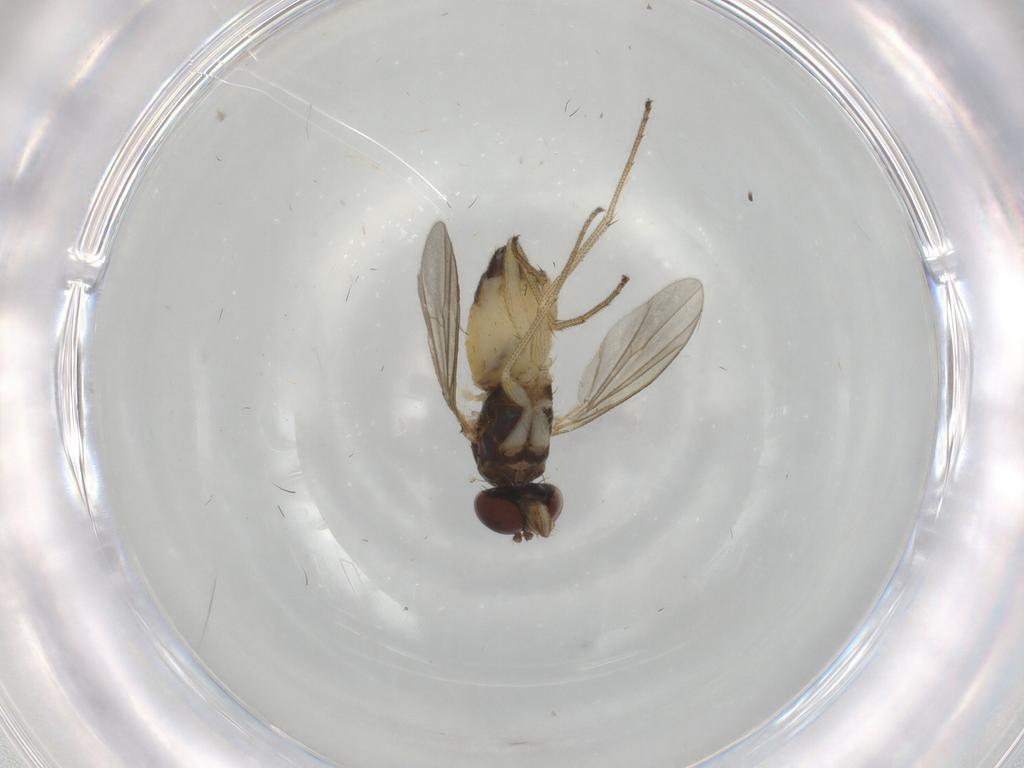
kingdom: Animalia
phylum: Arthropoda
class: Insecta
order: Diptera
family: Dolichopodidae
